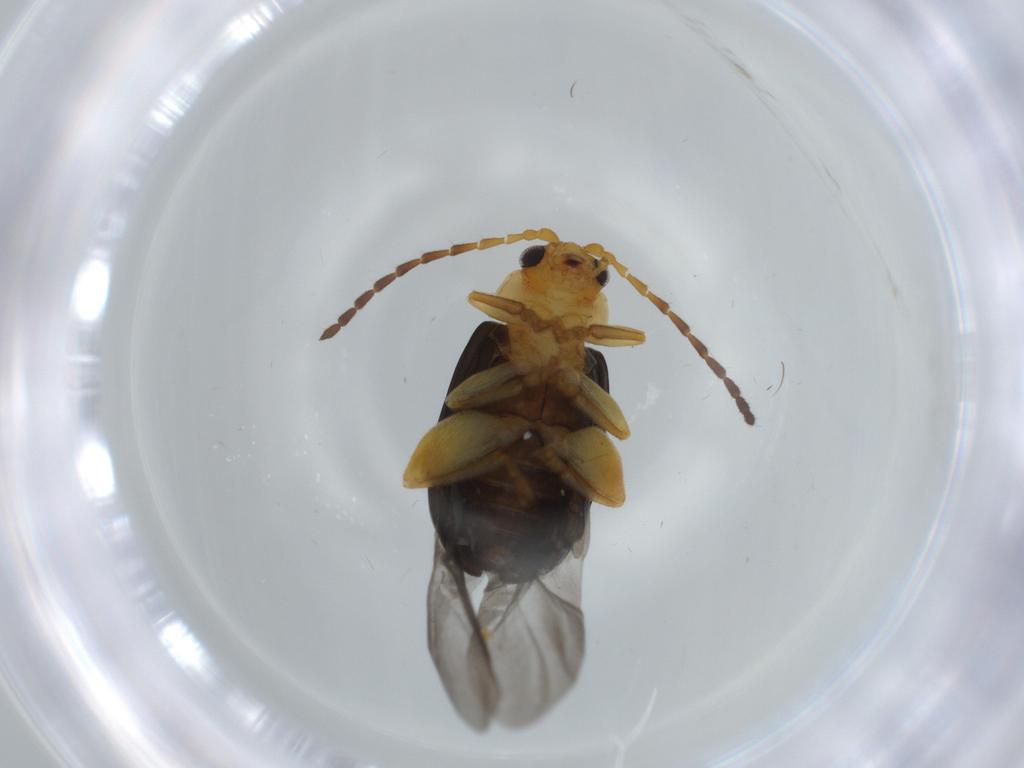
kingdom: Animalia
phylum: Arthropoda
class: Insecta
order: Coleoptera
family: Chrysomelidae
